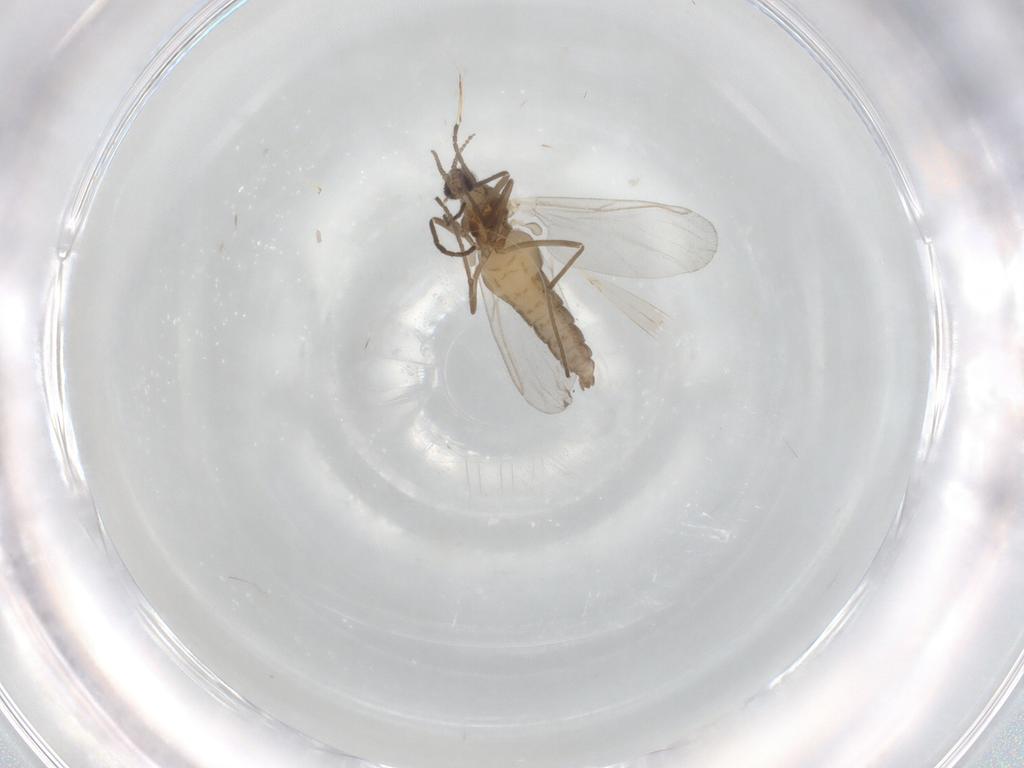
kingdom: Animalia
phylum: Arthropoda
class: Insecta
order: Diptera
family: Cecidomyiidae
